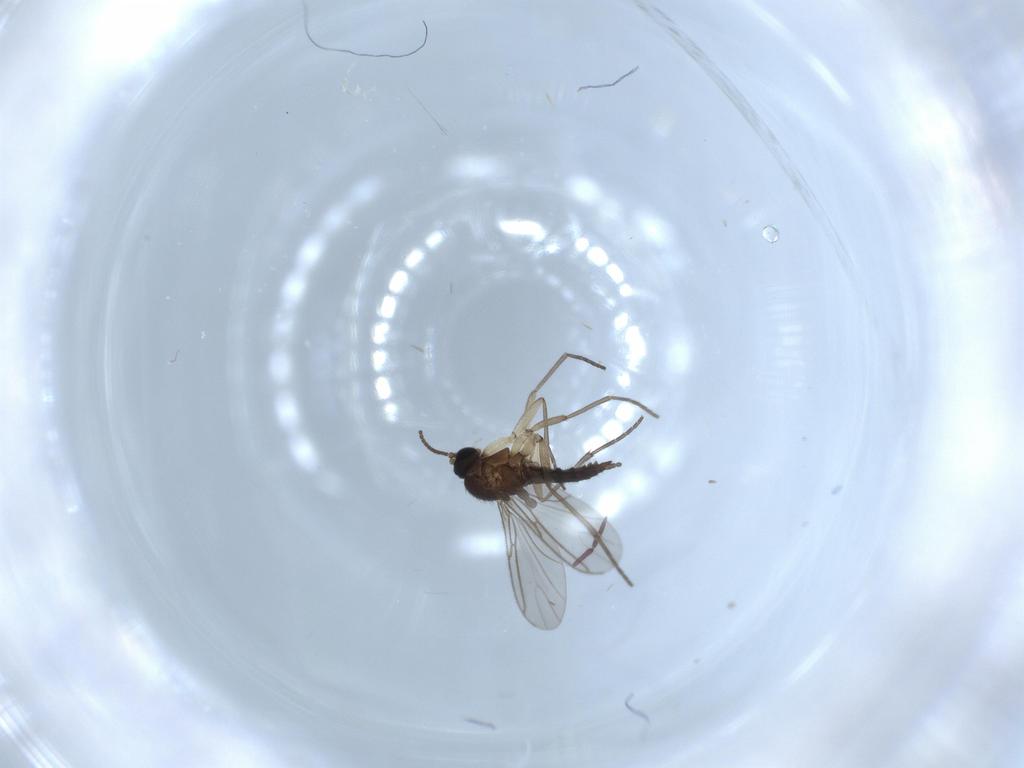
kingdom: Animalia
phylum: Arthropoda
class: Insecta
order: Diptera
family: Sciaridae
